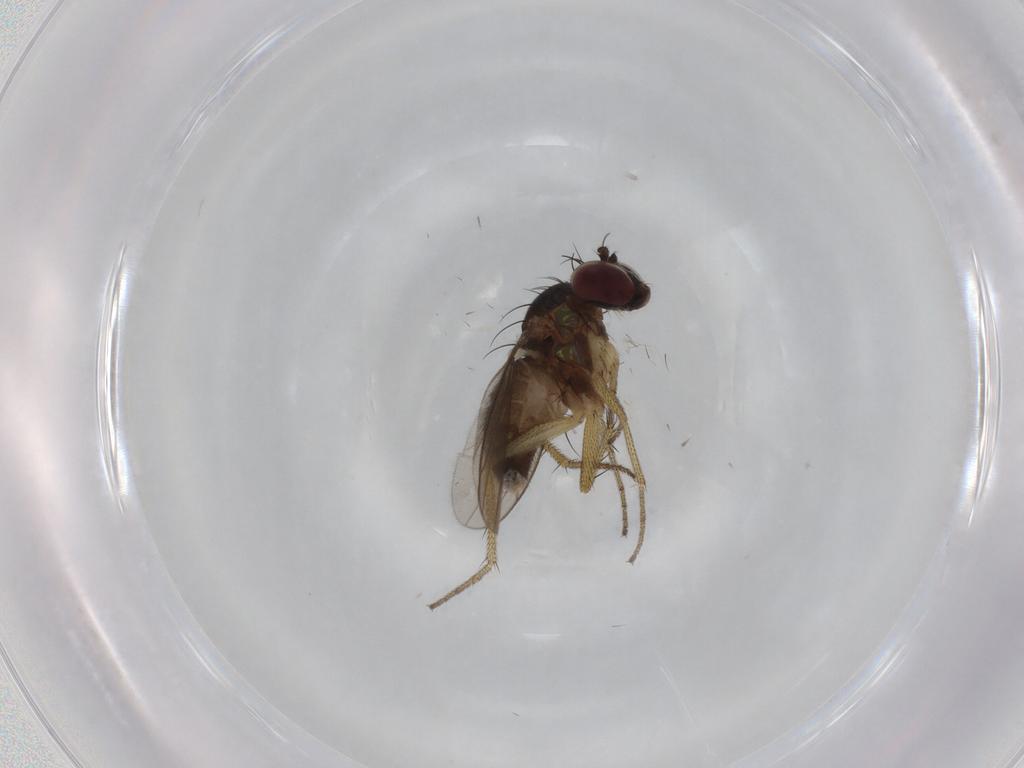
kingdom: Animalia
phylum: Arthropoda
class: Insecta
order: Diptera
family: Dolichopodidae
